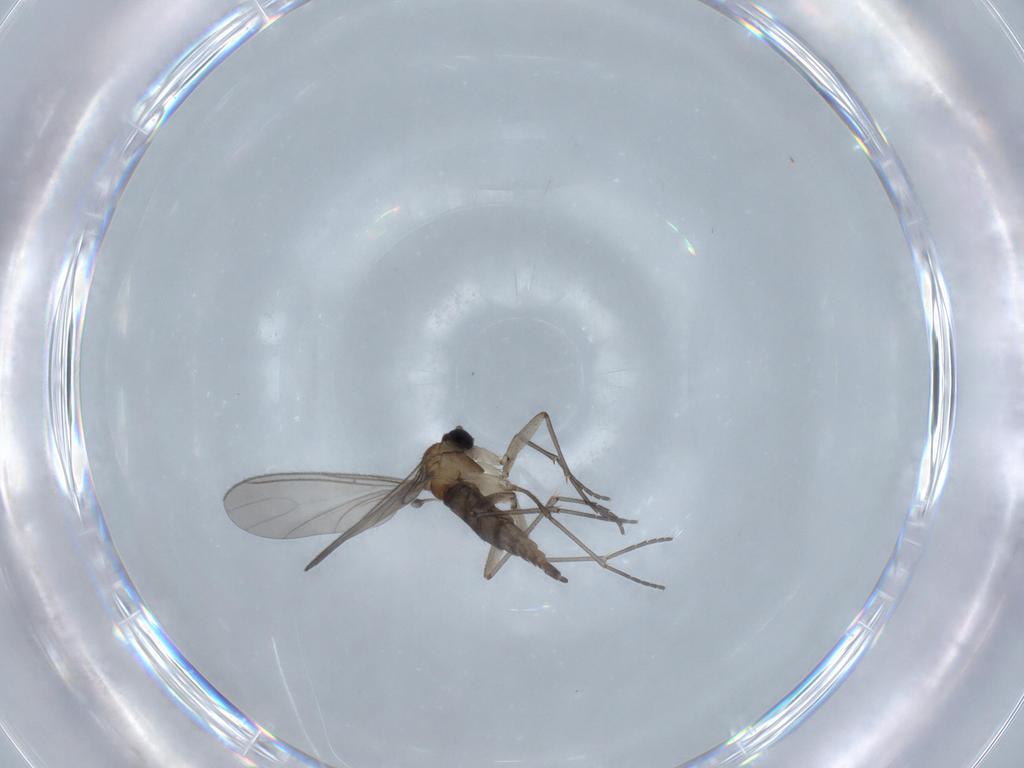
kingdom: Animalia
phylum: Arthropoda
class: Insecta
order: Diptera
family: Sciaridae
